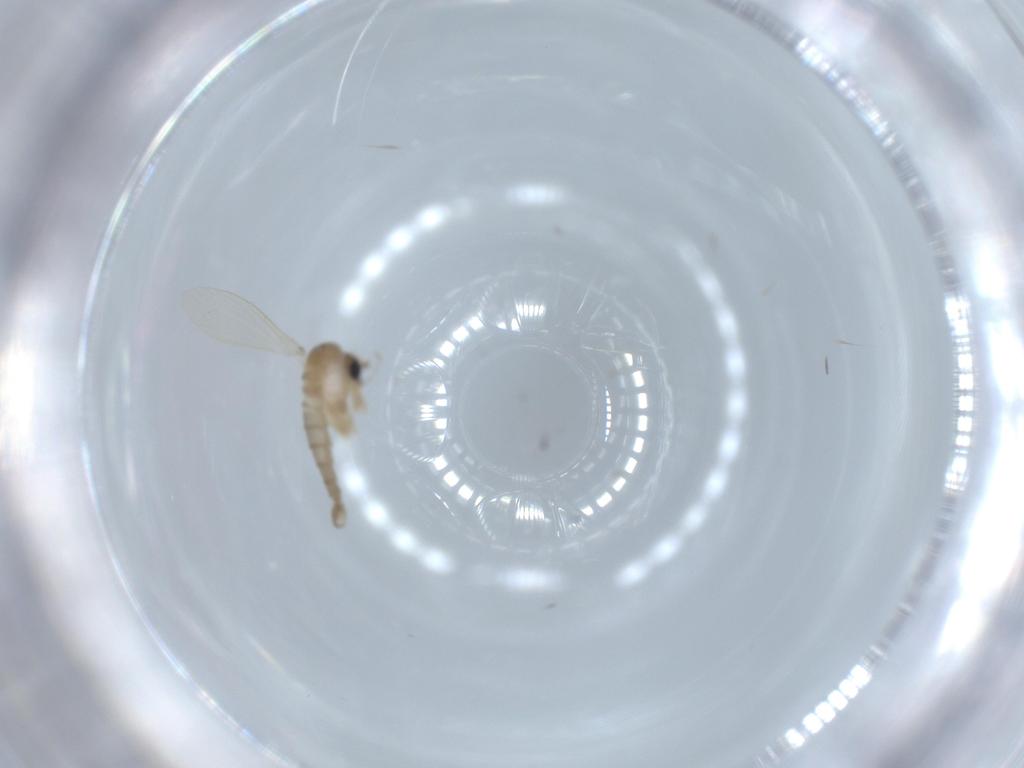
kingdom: Animalia
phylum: Arthropoda
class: Insecta
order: Diptera
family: Psychodidae
